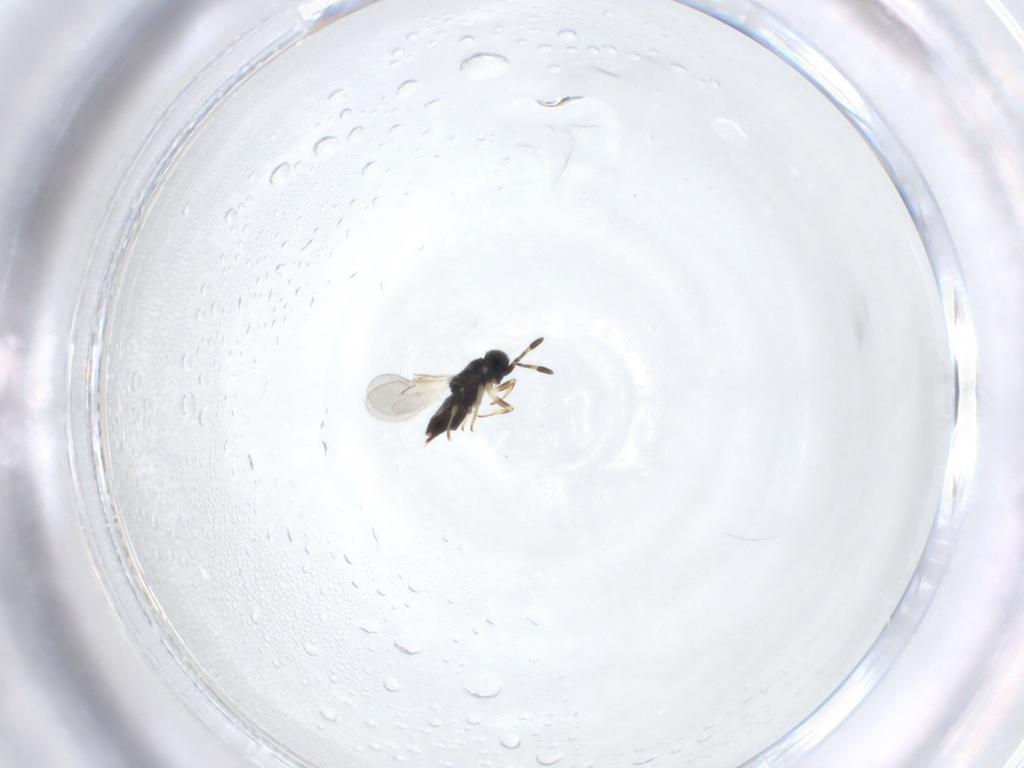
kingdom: Animalia
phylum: Arthropoda
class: Insecta
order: Hymenoptera
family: Encyrtidae
